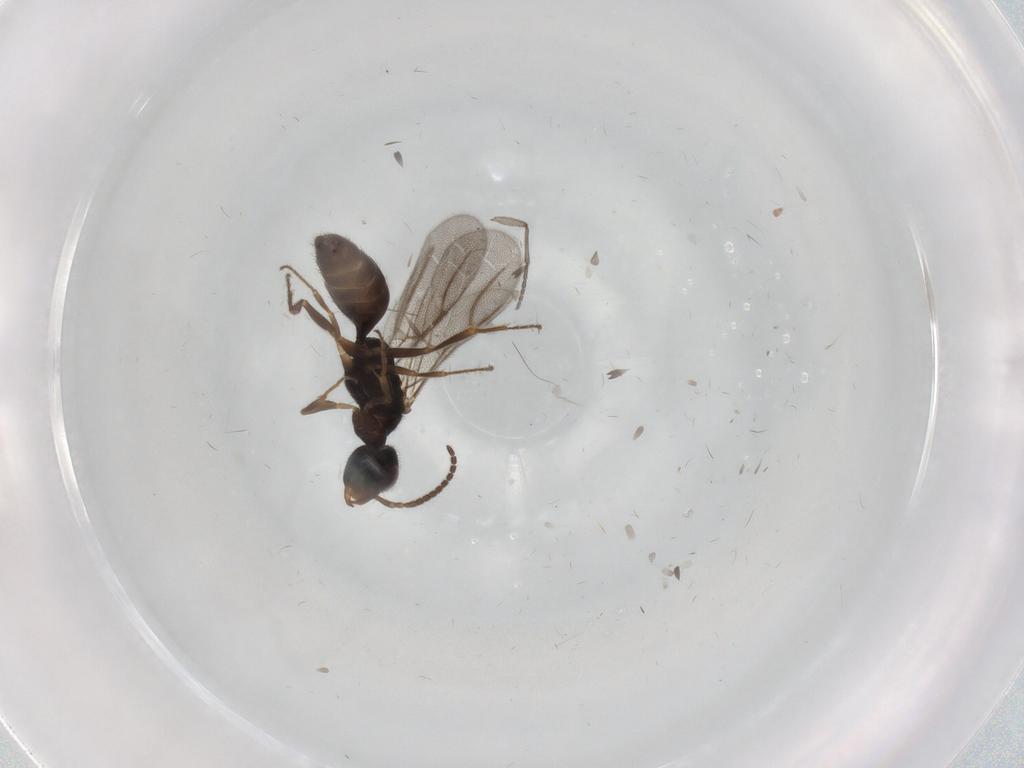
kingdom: Animalia
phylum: Arthropoda
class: Insecta
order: Hymenoptera
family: Bethylidae
